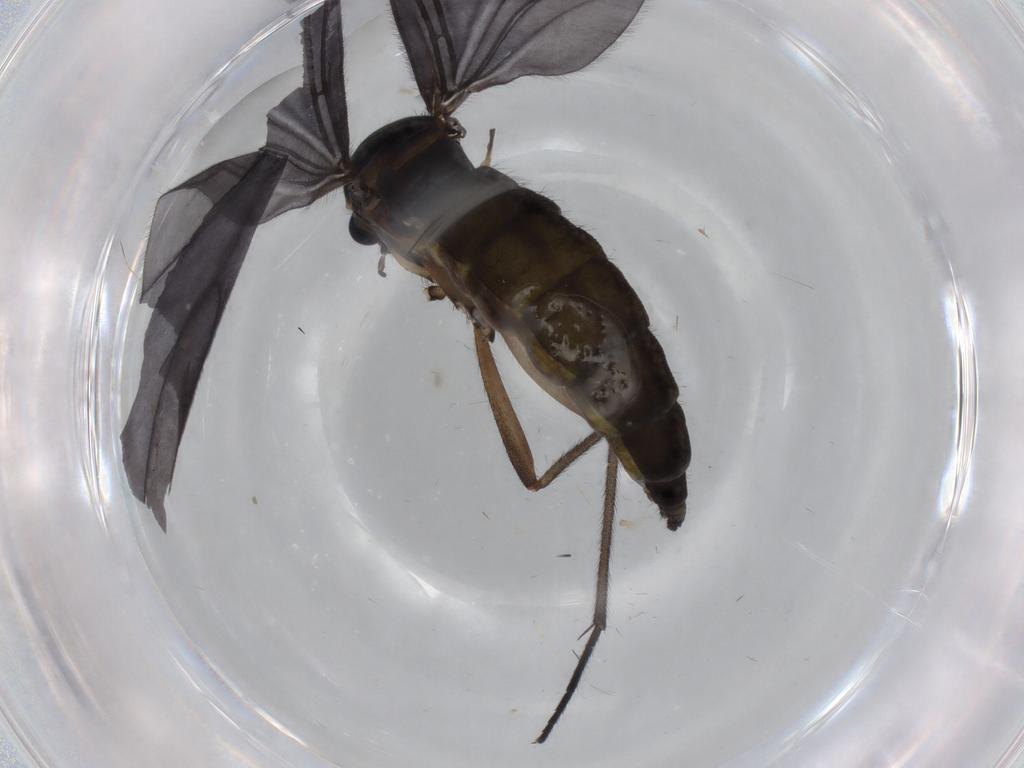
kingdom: Animalia
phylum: Arthropoda
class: Insecta
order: Diptera
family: Sciaridae
